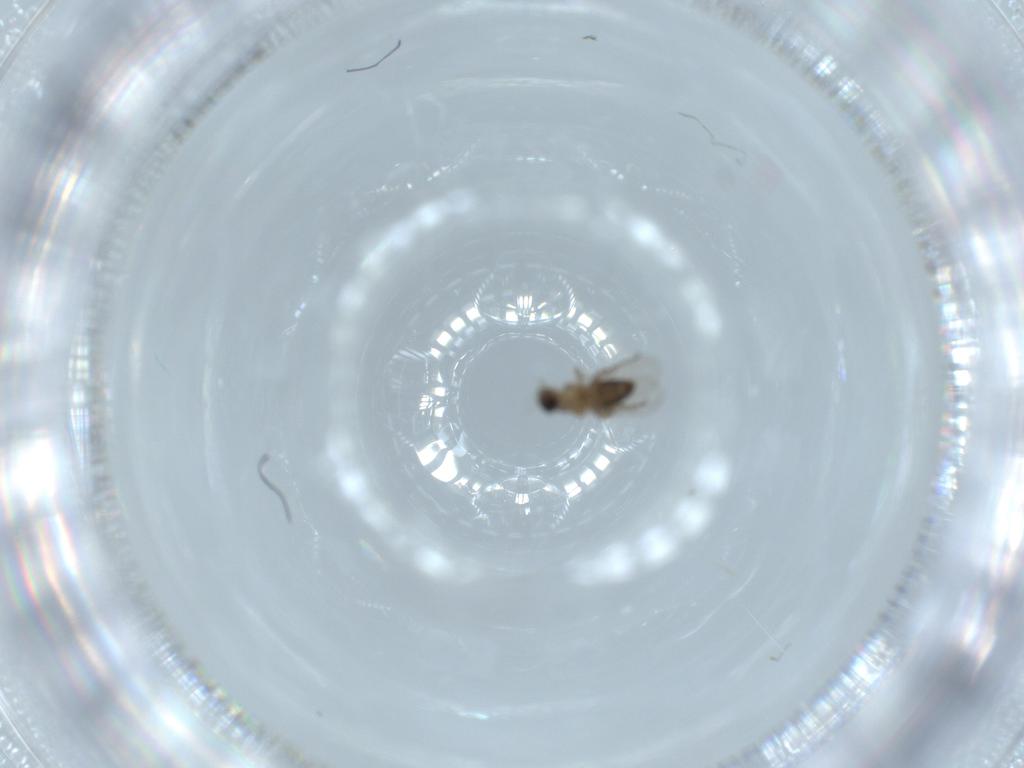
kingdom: Animalia
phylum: Arthropoda
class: Insecta
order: Diptera
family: Phoridae
